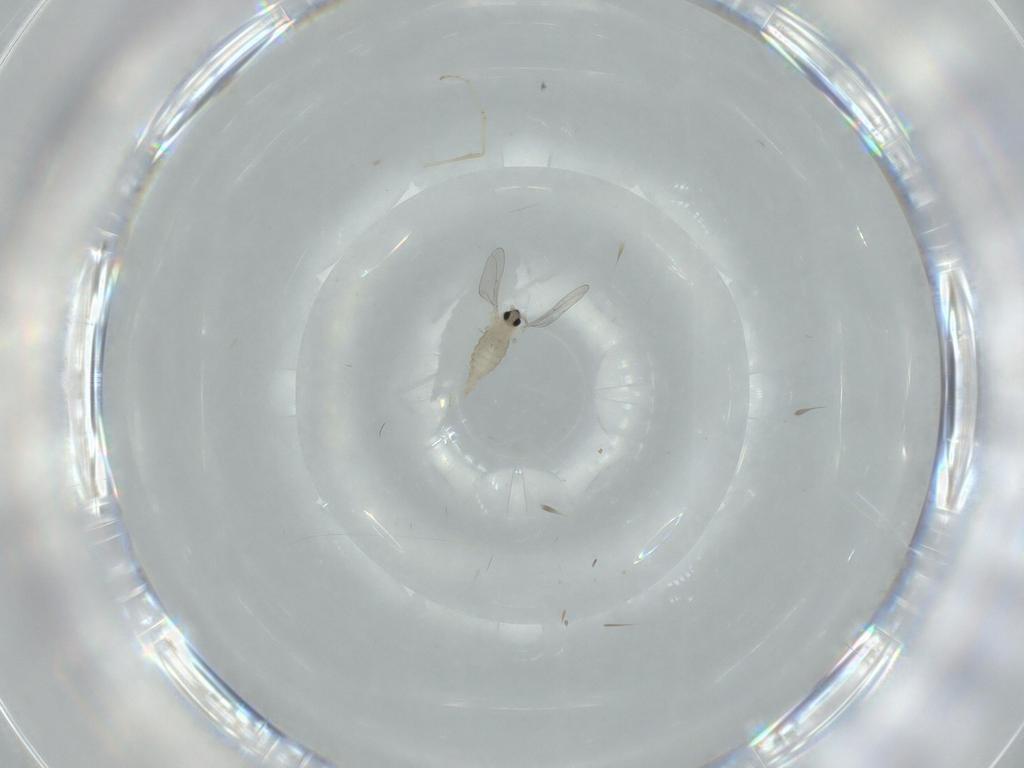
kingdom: Animalia
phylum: Arthropoda
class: Insecta
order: Diptera
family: Cecidomyiidae
